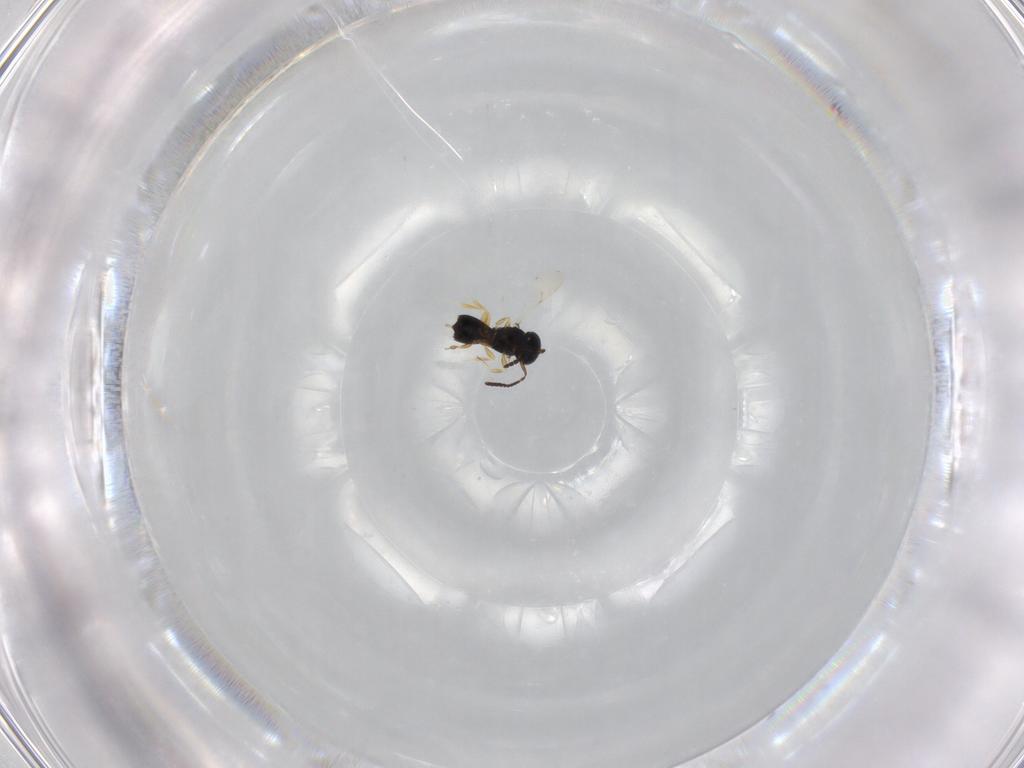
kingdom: Animalia
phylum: Arthropoda
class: Insecta
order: Hymenoptera
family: Scelionidae
